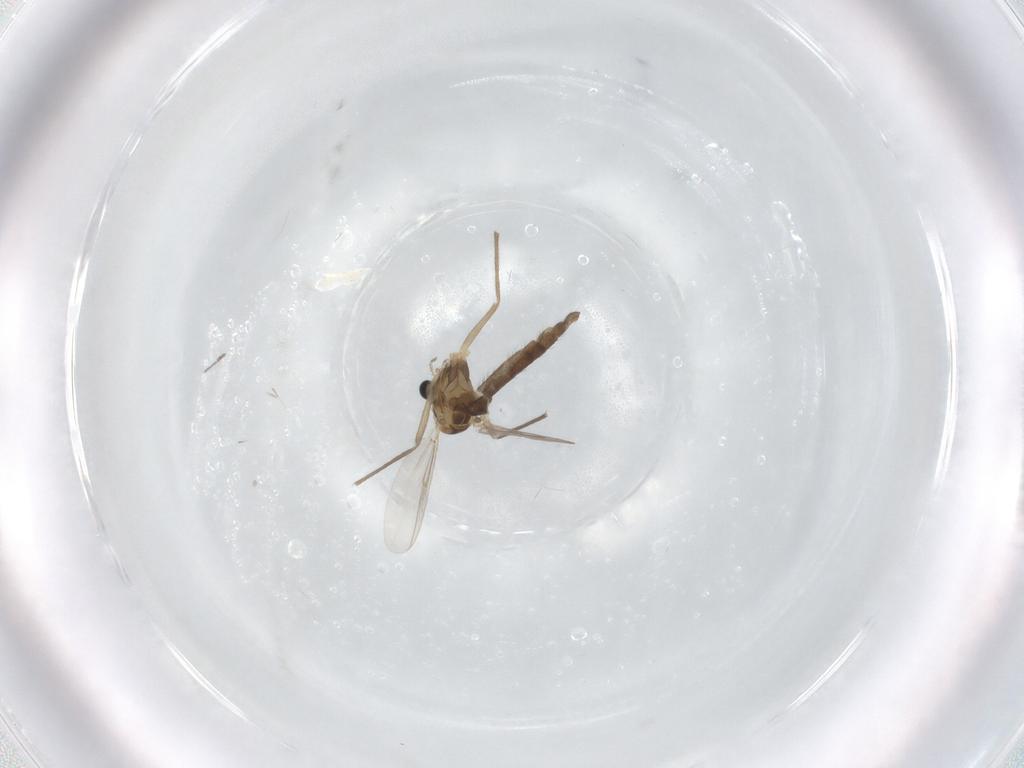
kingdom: Animalia
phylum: Arthropoda
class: Insecta
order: Diptera
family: Chironomidae
